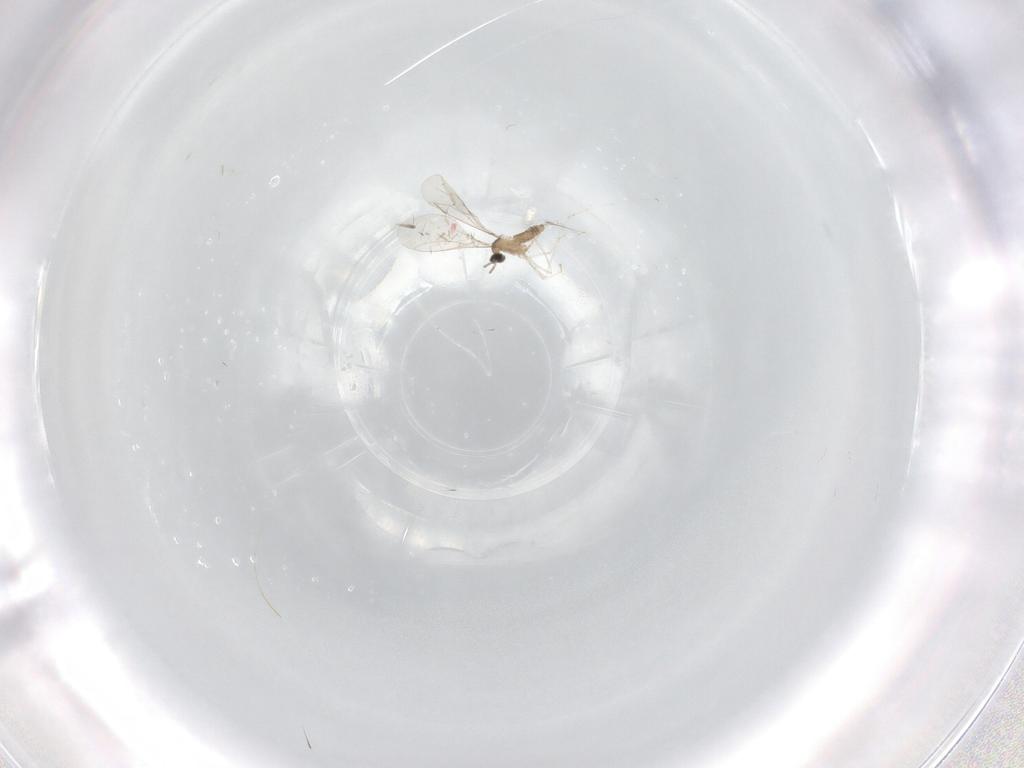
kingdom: Animalia
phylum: Arthropoda
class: Insecta
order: Diptera
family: Cecidomyiidae
